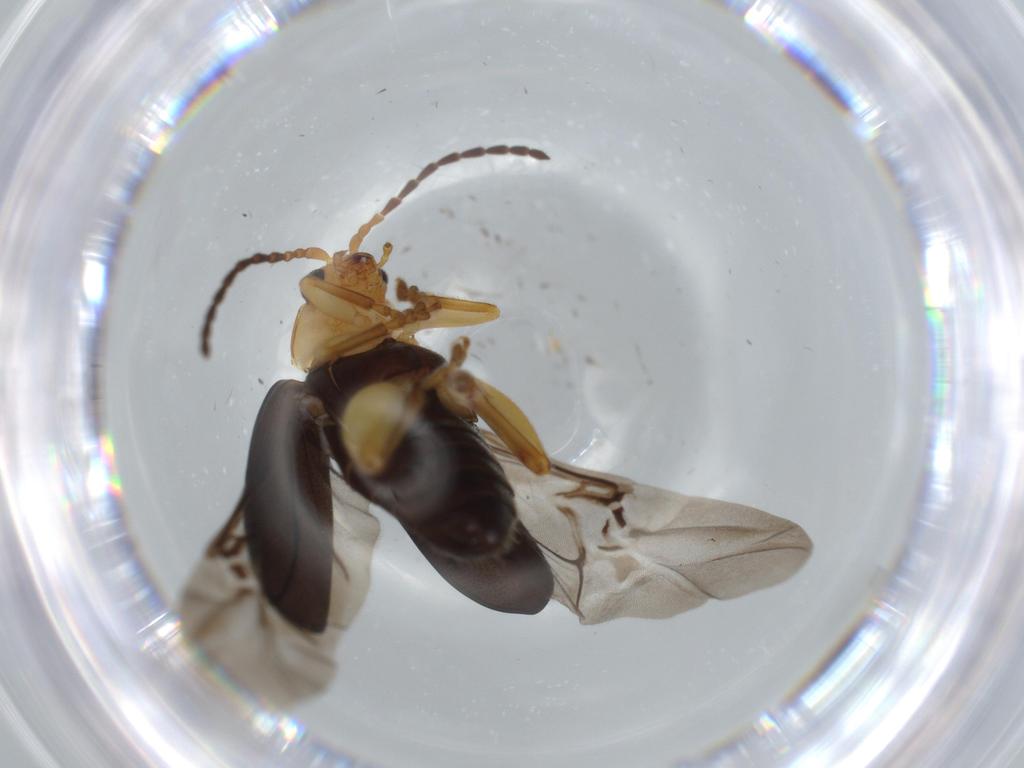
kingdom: Animalia
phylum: Arthropoda
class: Insecta
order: Coleoptera
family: Chrysomelidae
